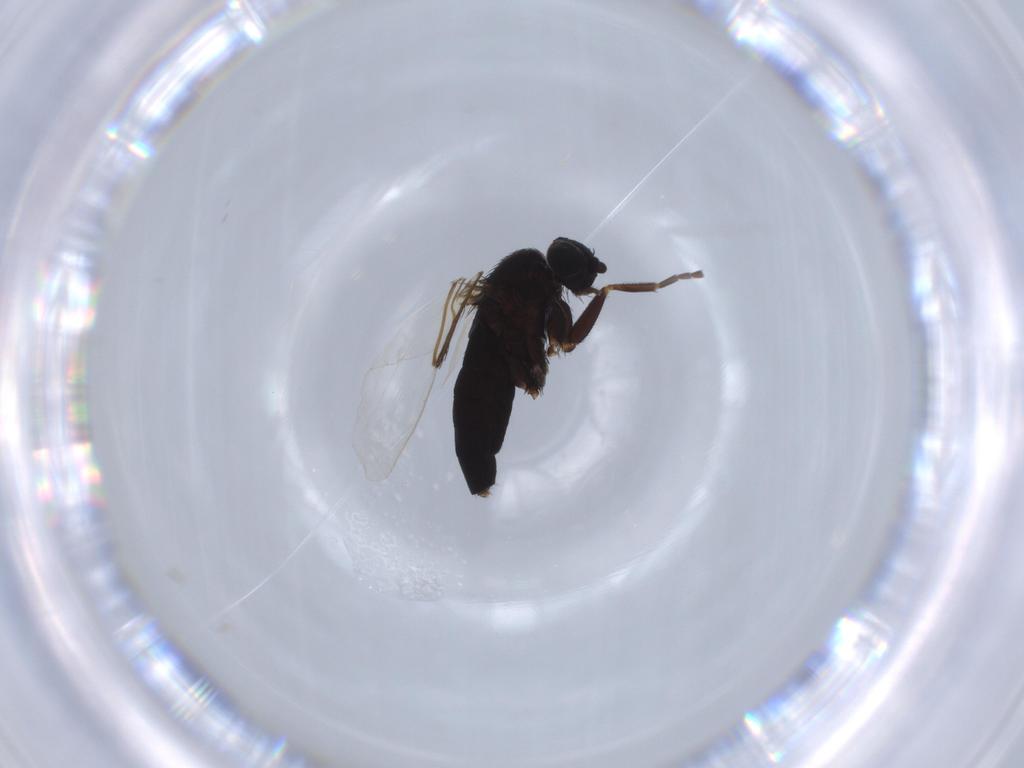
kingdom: Animalia
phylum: Arthropoda
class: Insecta
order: Diptera
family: Phoridae
